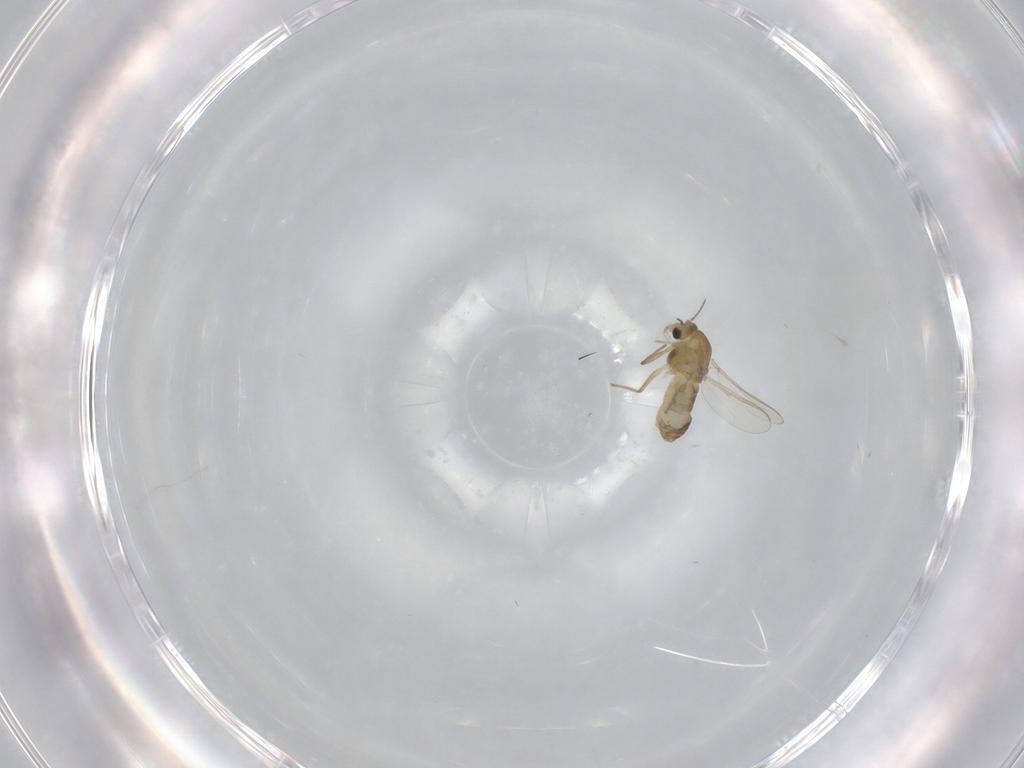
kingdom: Animalia
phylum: Arthropoda
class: Insecta
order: Diptera
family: Chironomidae
